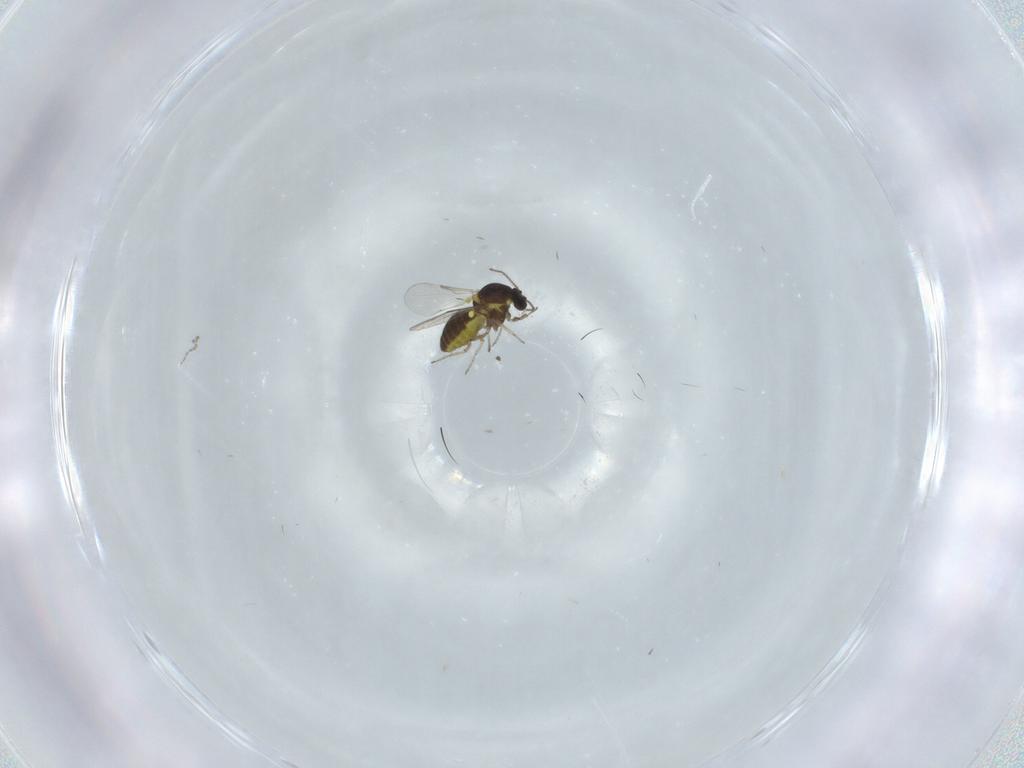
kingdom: Animalia
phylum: Arthropoda
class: Insecta
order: Diptera
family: Ceratopogonidae
